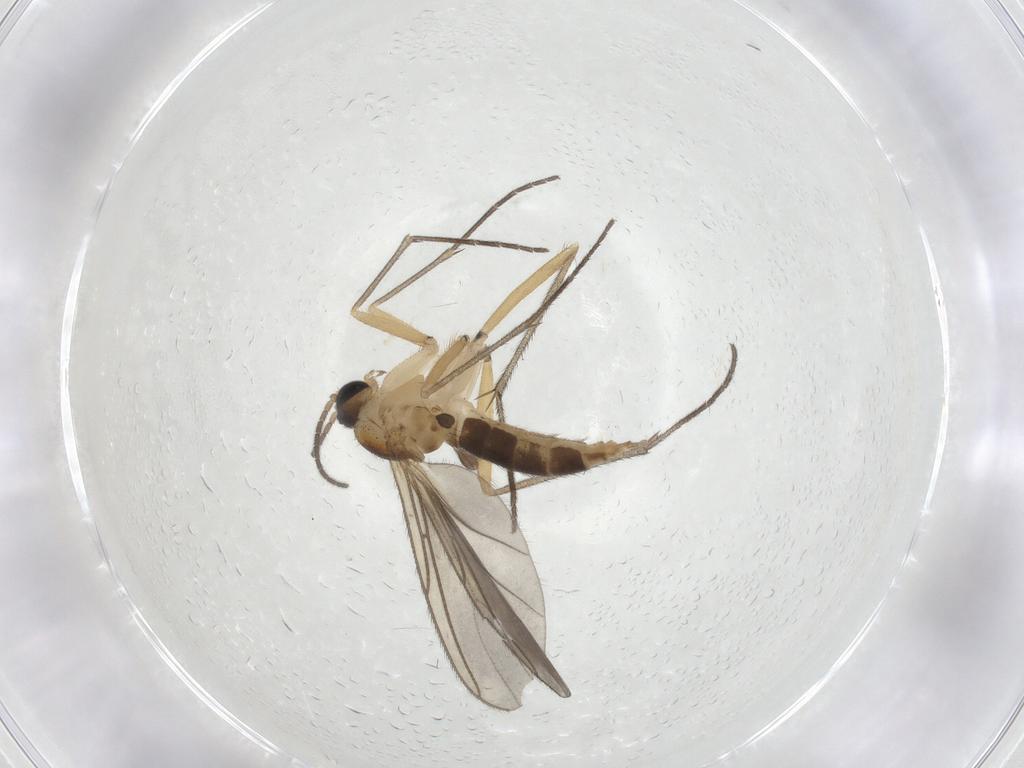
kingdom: Animalia
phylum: Arthropoda
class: Insecta
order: Diptera
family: Sciaridae
